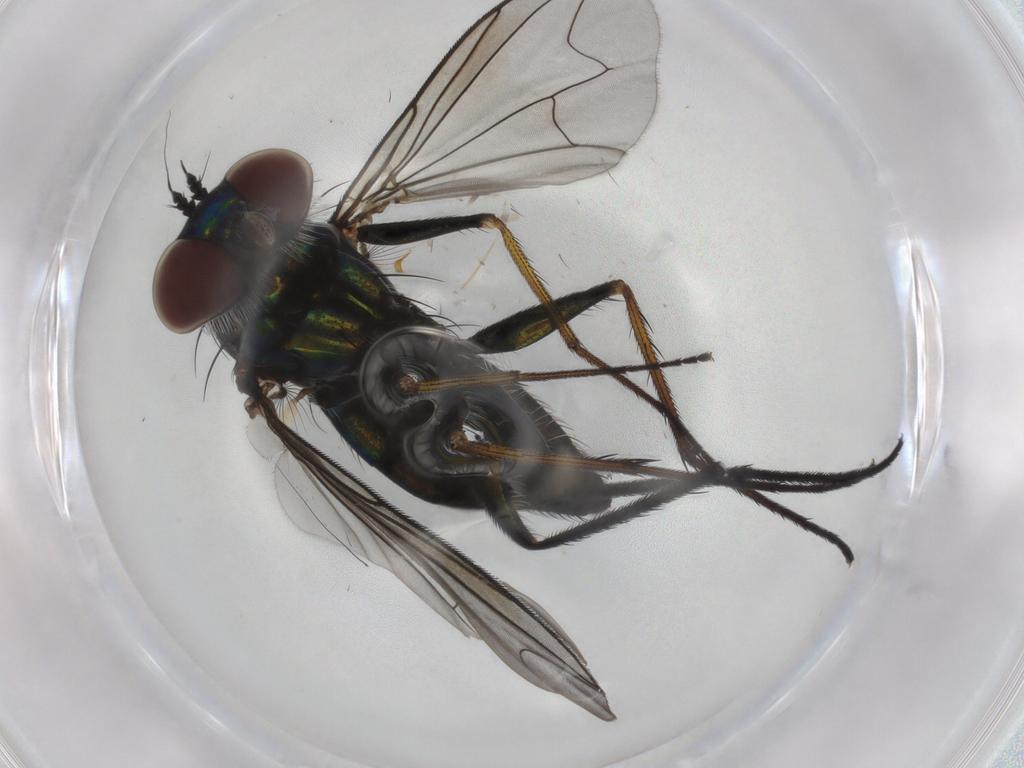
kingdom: Animalia
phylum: Arthropoda
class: Insecta
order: Diptera
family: Dolichopodidae
